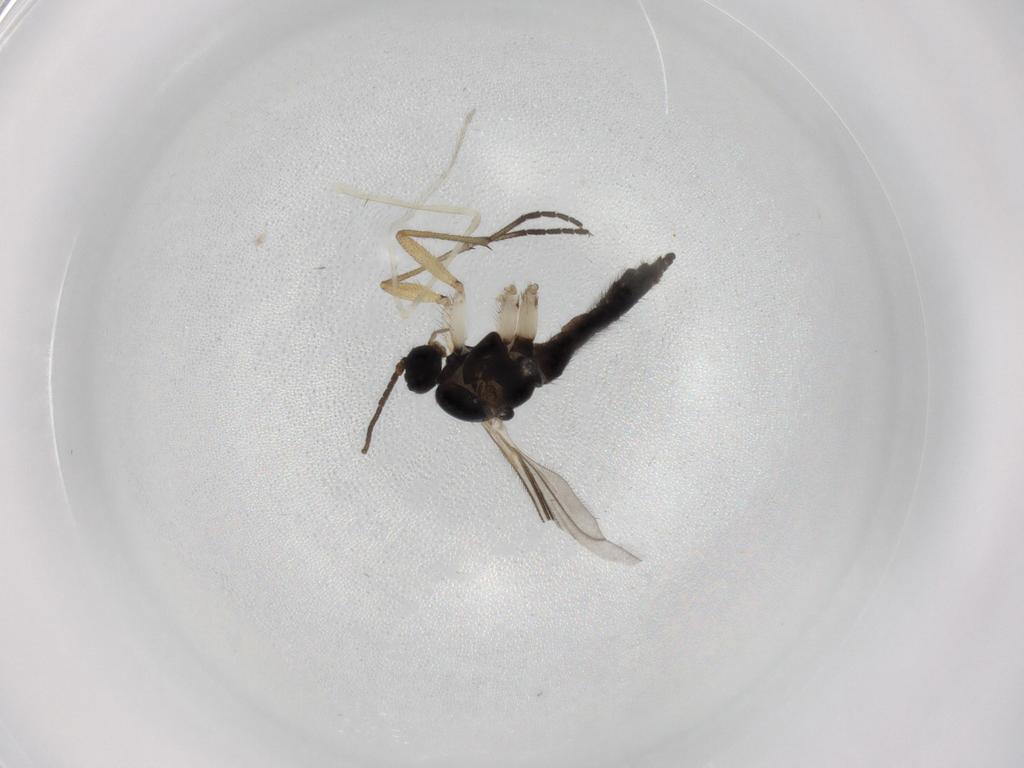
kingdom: Animalia
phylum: Arthropoda
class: Insecta
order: Diptera
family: Sciaridae
